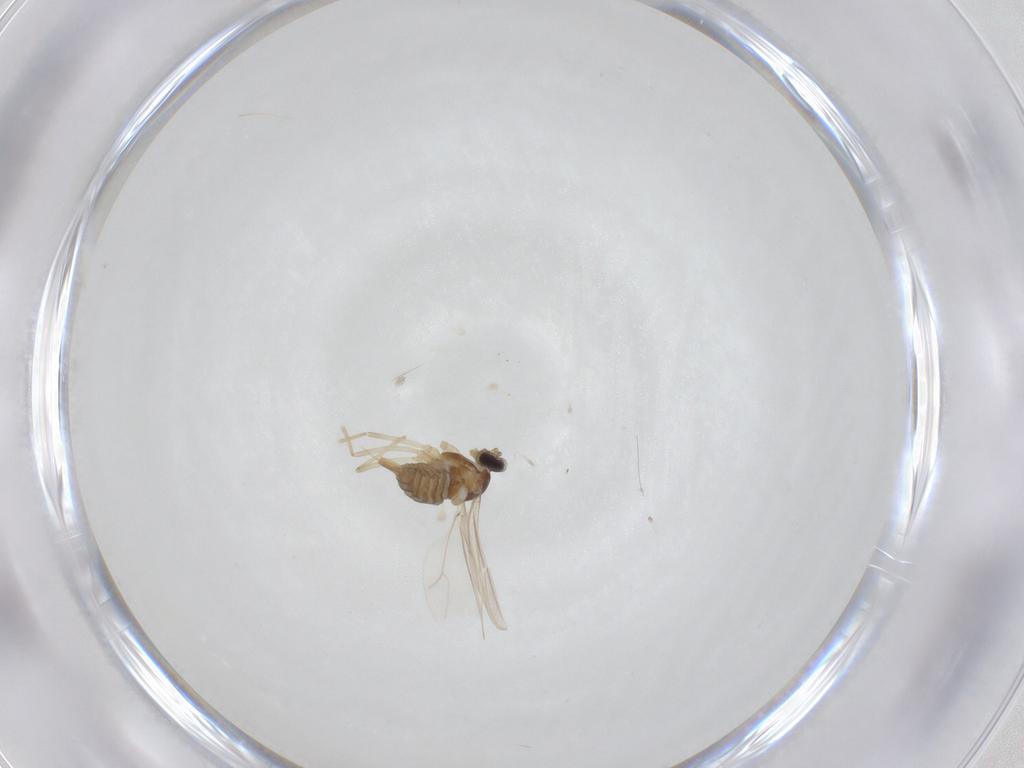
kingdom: Animalia
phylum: Arthropoda
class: Insecta
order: Diptera
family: Cecidomyiidae
